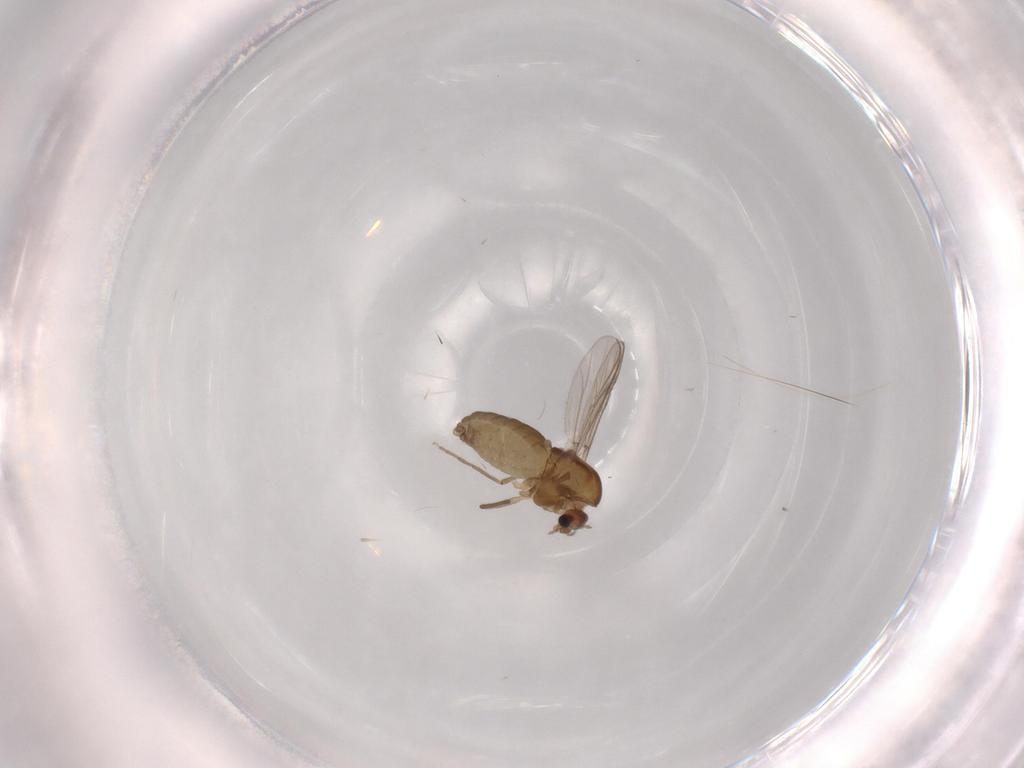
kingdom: Animalia
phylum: Arthropoda
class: Insecta
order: Diptera
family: Chironomidae
